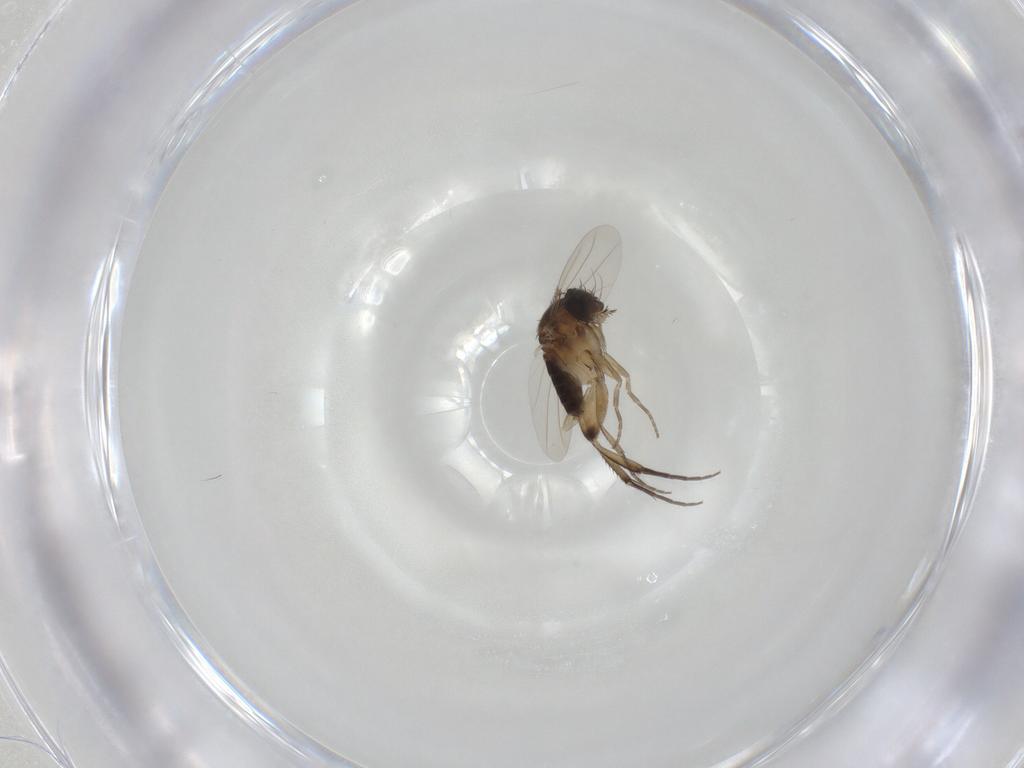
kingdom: Animalia
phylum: Arthropoda
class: Insecta
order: Diptera
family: Phoridae
